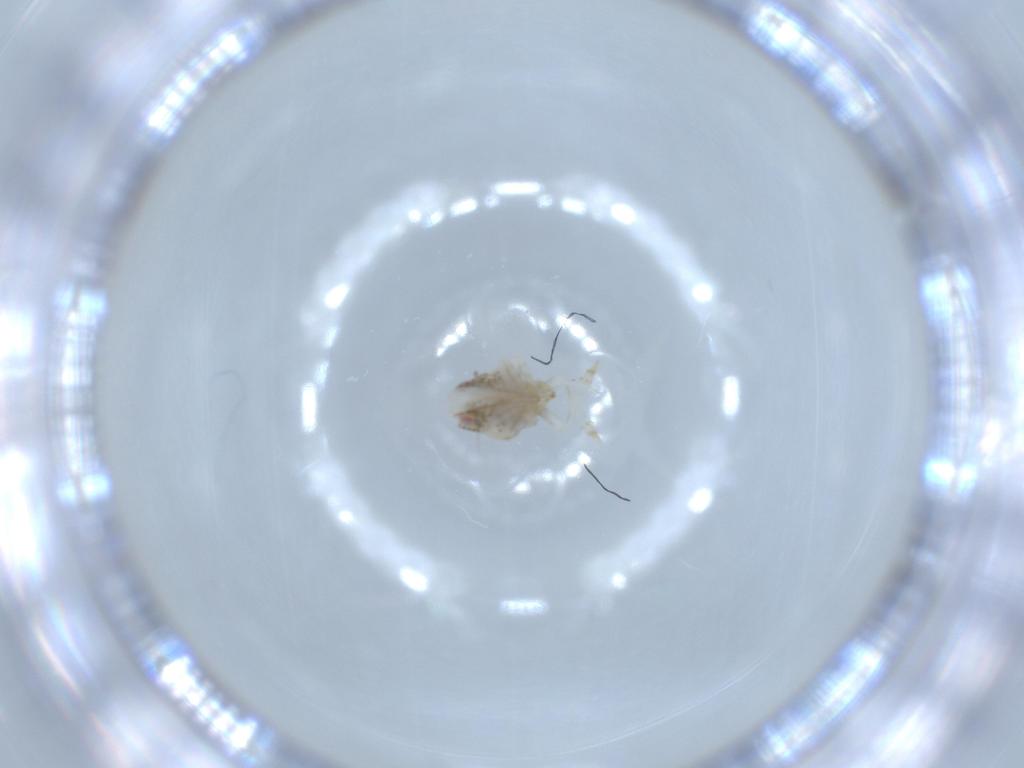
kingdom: Animalia
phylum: Arthropoda
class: Insecta
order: Hemiptera
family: Acanaloniidae
